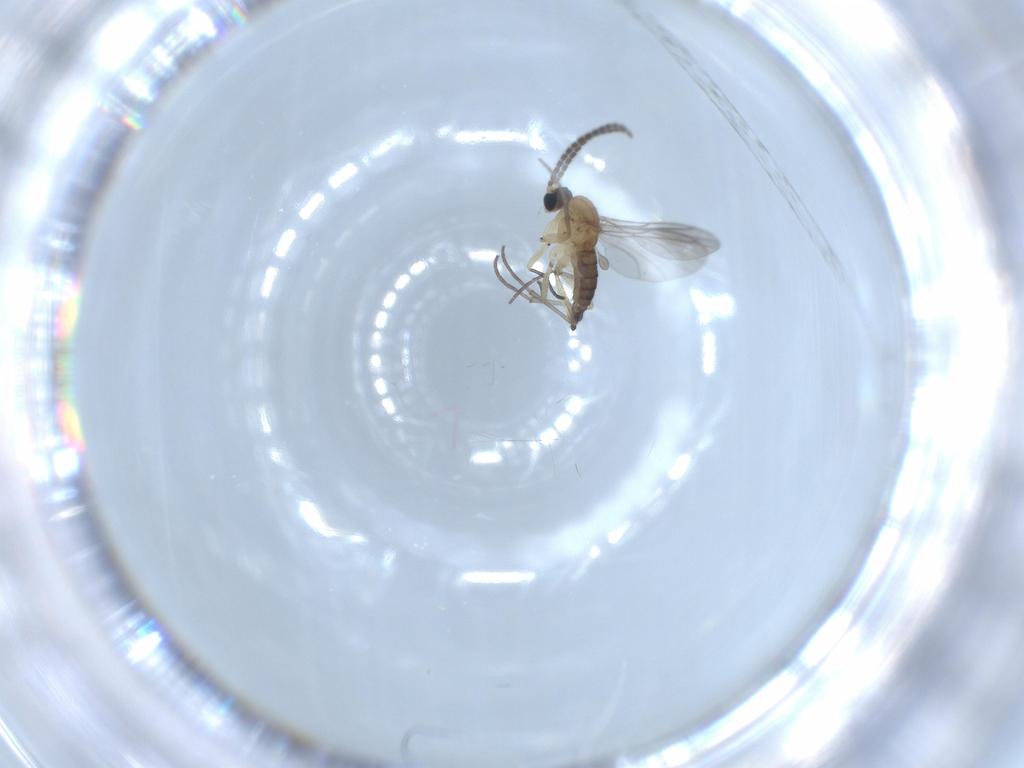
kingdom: Animalia
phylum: Arthropoda
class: Insecta
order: Diptera
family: Sciaridae
